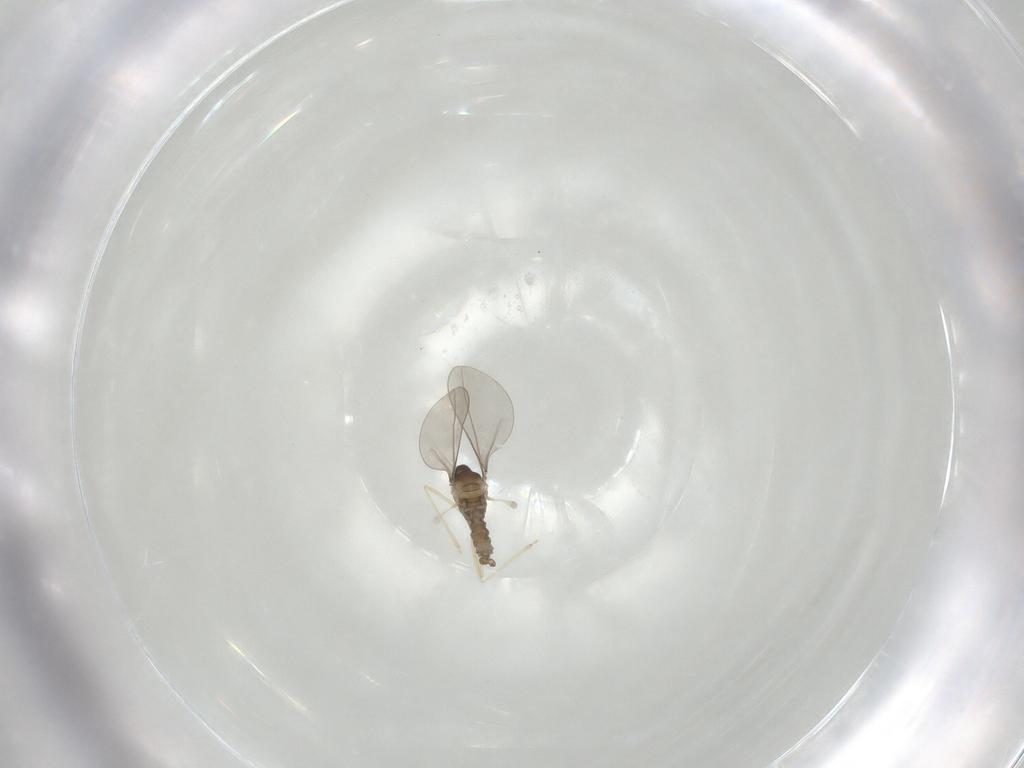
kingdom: Animalia
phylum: Arthropoda
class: Insecta
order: Diptera
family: Cecidomyiidae
